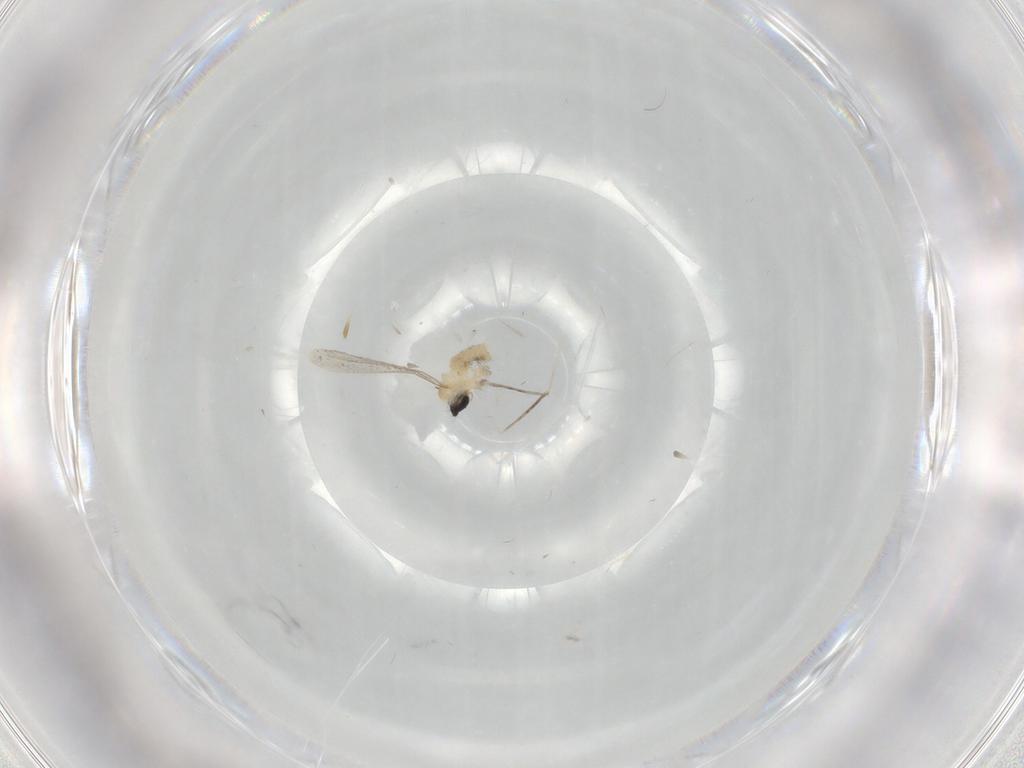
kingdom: Animalia
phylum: Arthropoda
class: Insecta
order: Diptera
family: Cecidomyiidae
